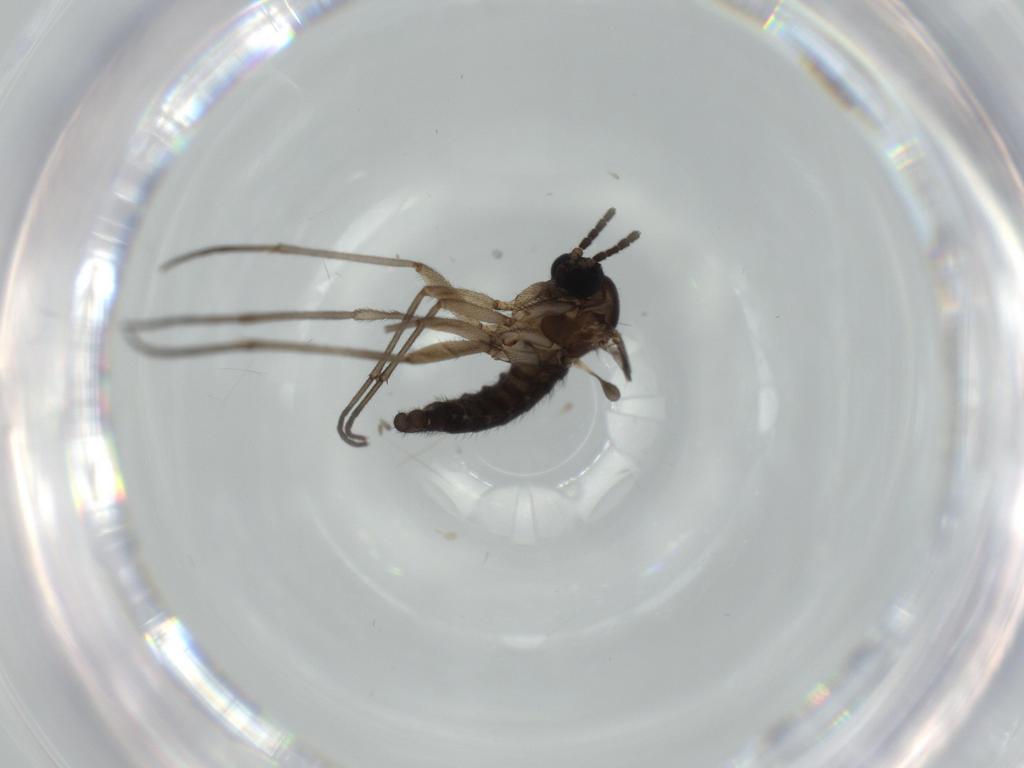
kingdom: Animalia
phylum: Arthropoda
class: Insecta
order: Diptera
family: Sciaridae
